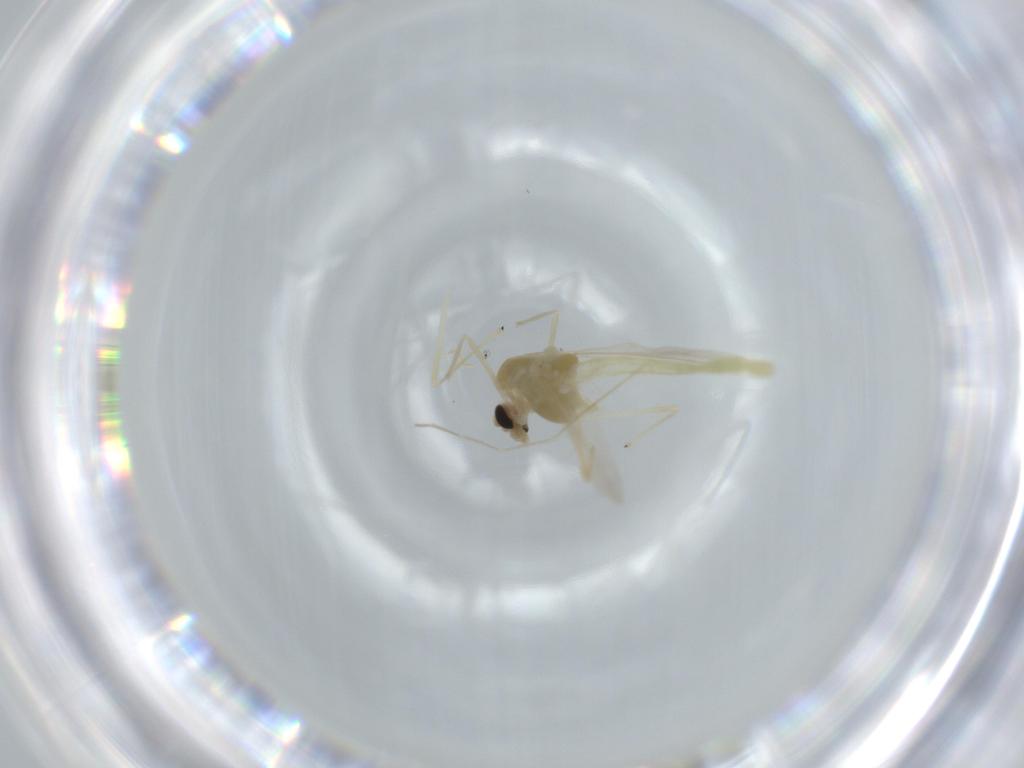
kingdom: Animalia
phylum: Arthropoda
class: Insecta
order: Diptera
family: Chironomidae
